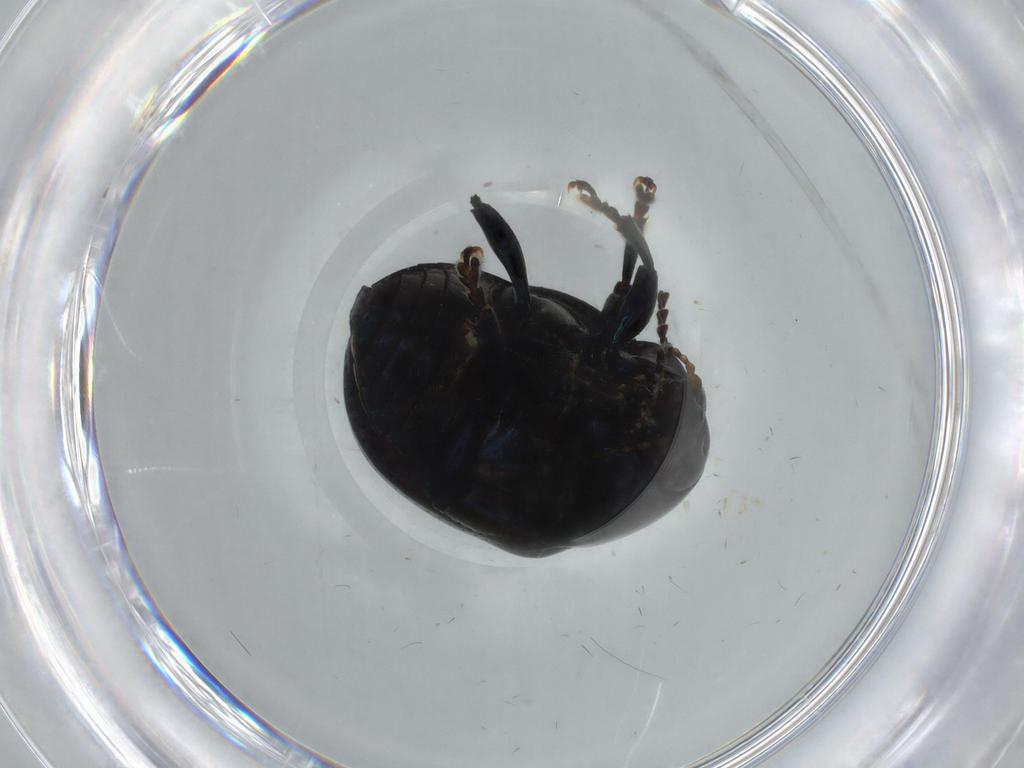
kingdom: Animalia
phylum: Arthropoda
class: Insecta
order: Coleoptera
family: Chrysomelidae
